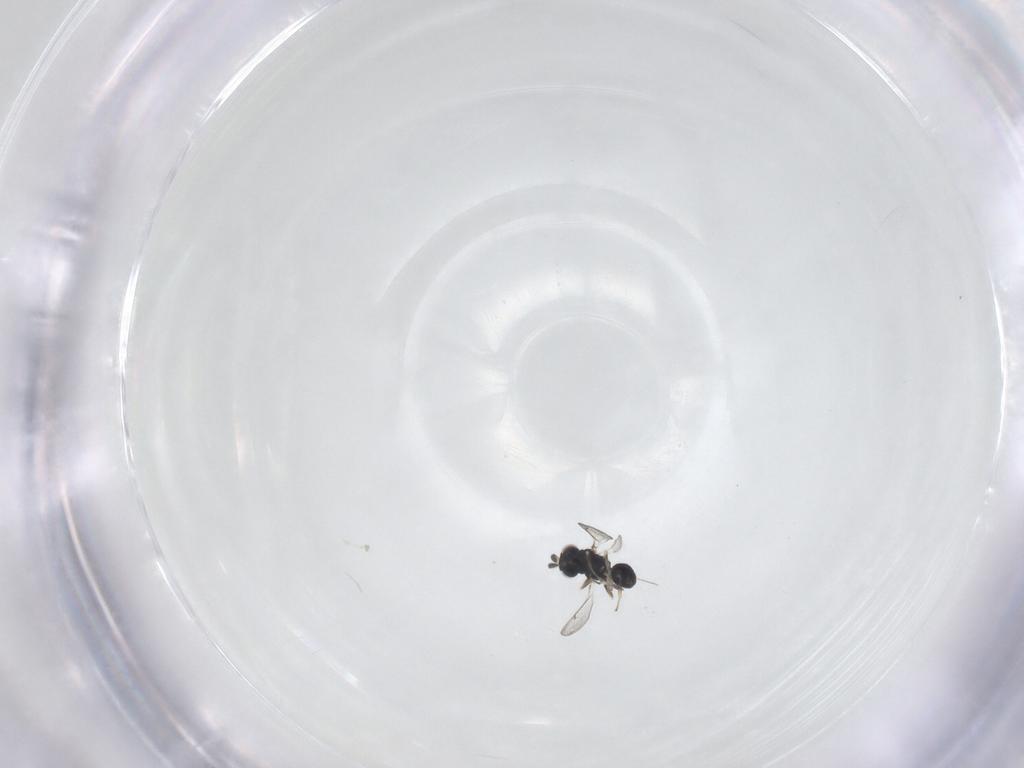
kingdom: Animalia
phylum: Arthropoda
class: Insecta
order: Hymenoptera
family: Eulophidae
